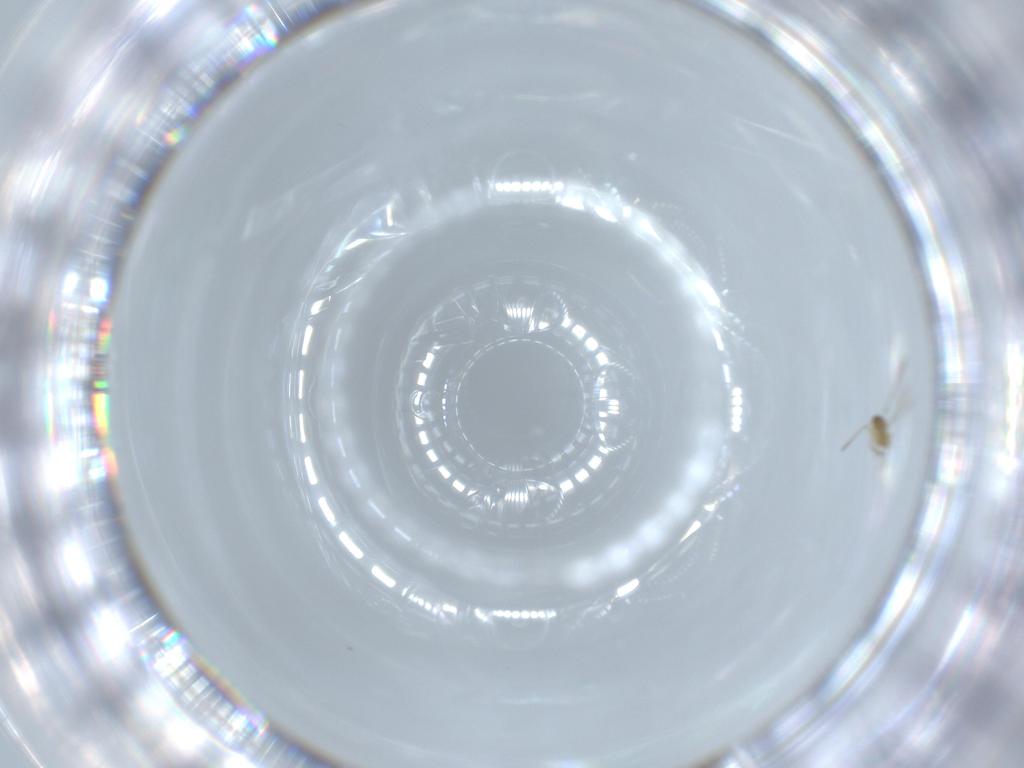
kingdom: Animalia
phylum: Arthropoda
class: Insecta
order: Hymenoptera
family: Mymaridae
